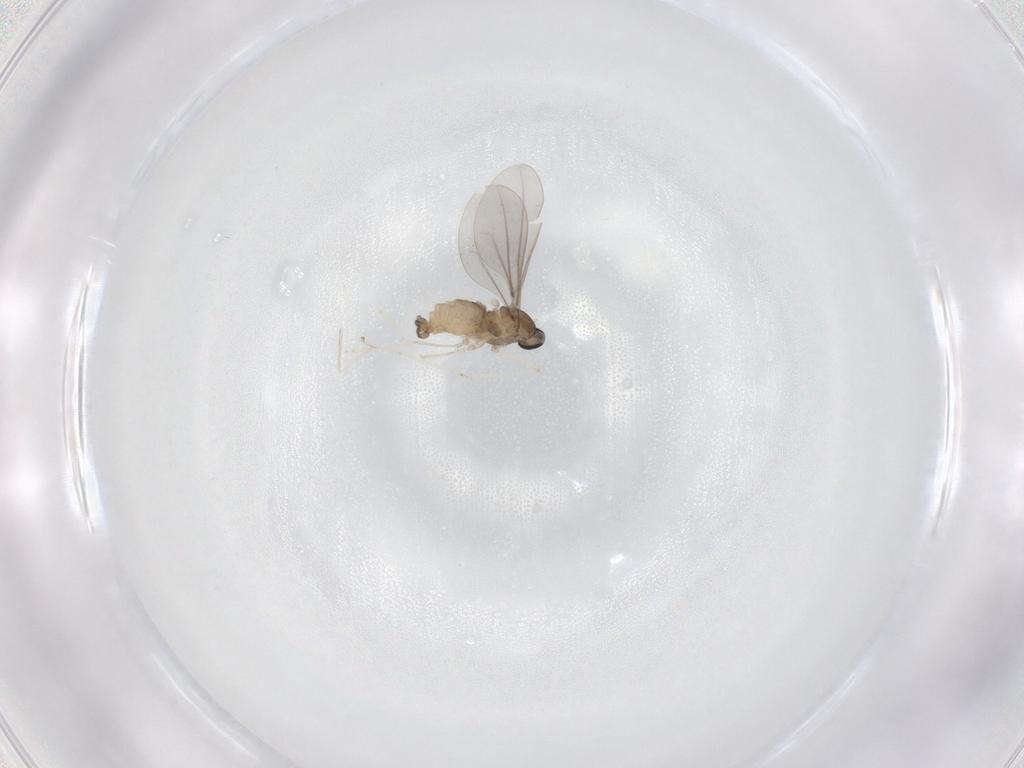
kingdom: Animalia
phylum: Arthropoda
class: Insecta
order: Diptera
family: Cecidomyiidae
